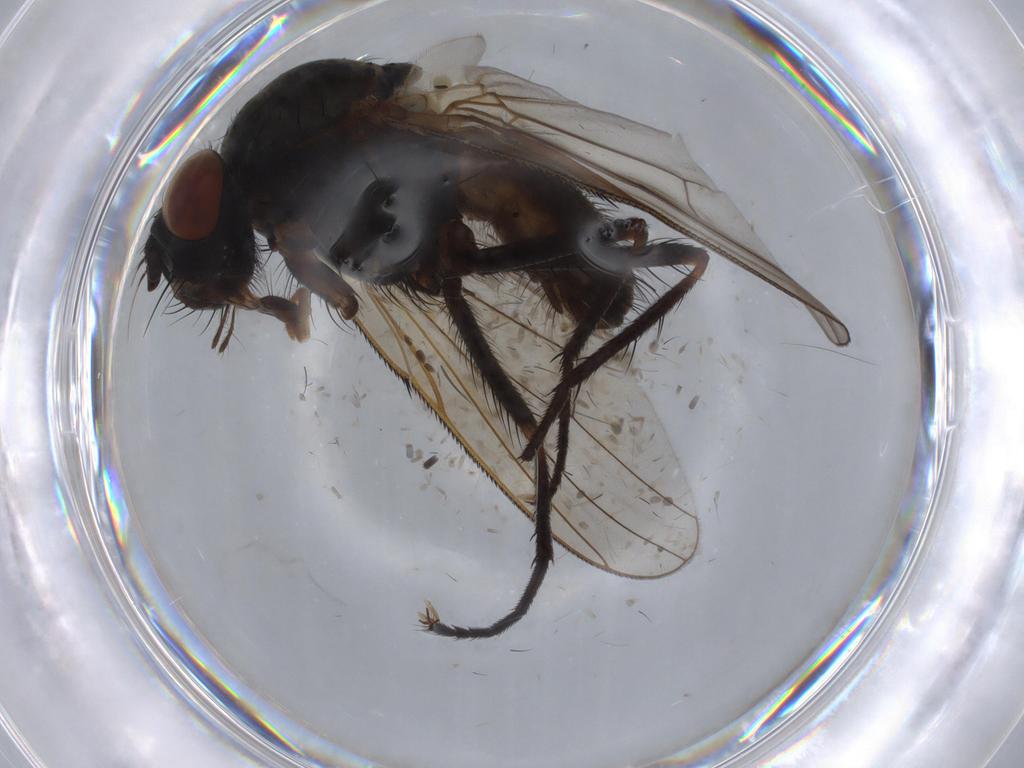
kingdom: Animalia
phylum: Arthropoda
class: Insecta
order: Diptera
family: Anthomyiidae
